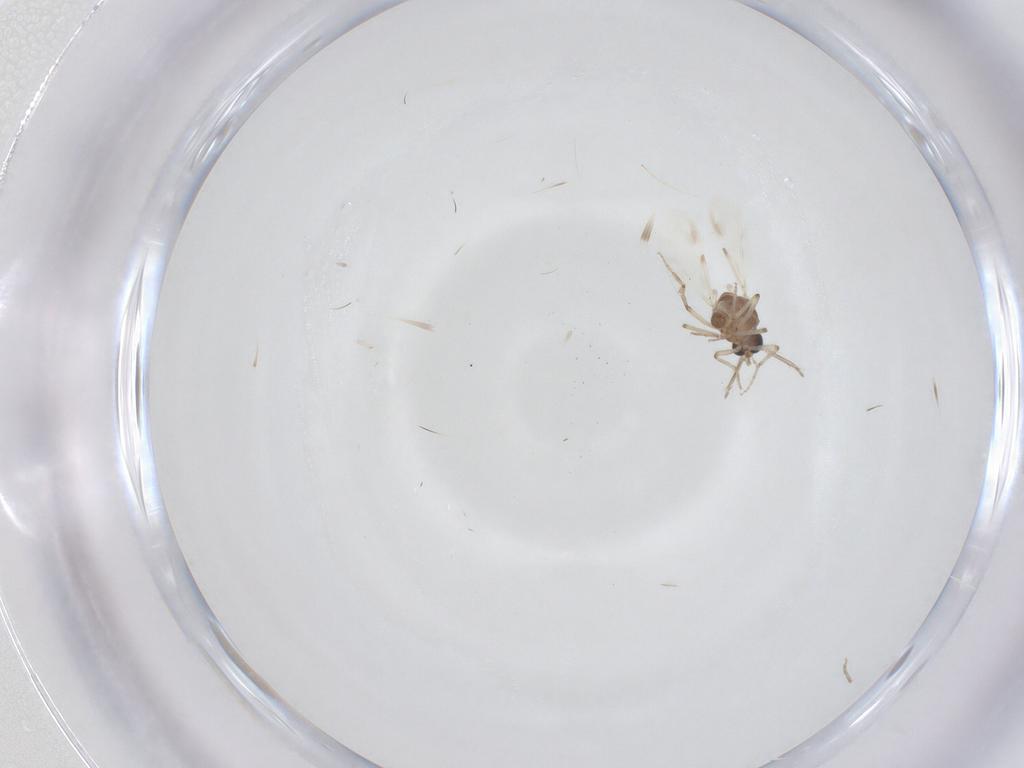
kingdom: Animalia
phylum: Arthropoda
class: Insecta
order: Diptera
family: Ceratopogonidae
